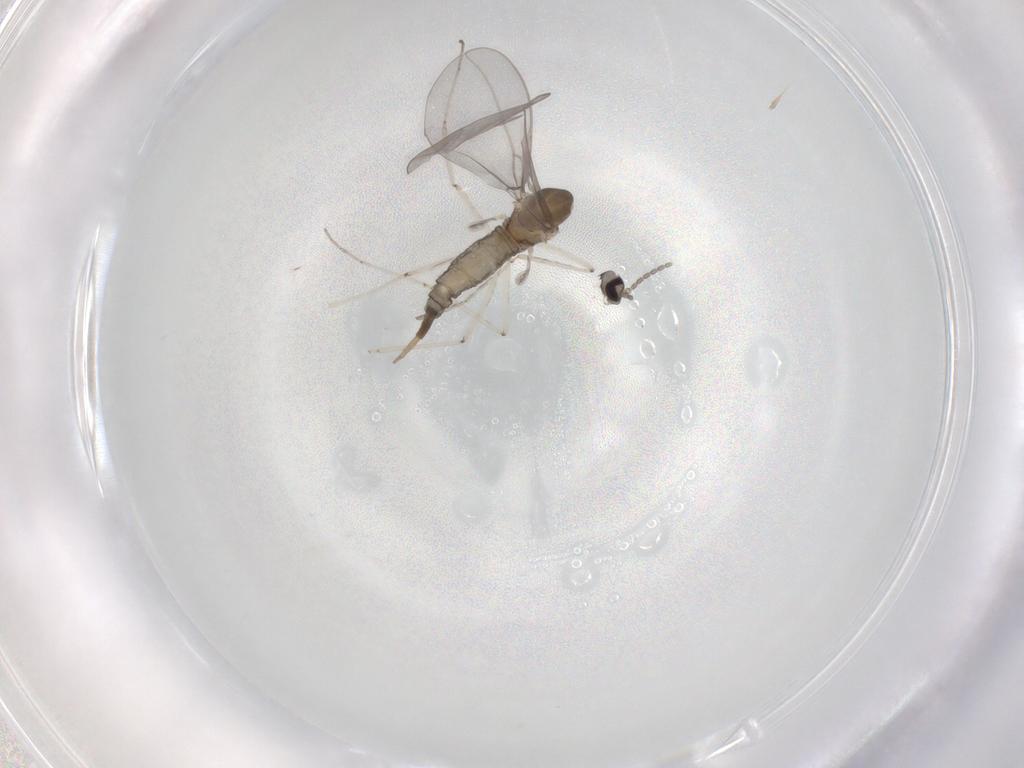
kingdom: Animalia
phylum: Arthropoda
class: Insecta
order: Diptera
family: Cecidomyiidae
